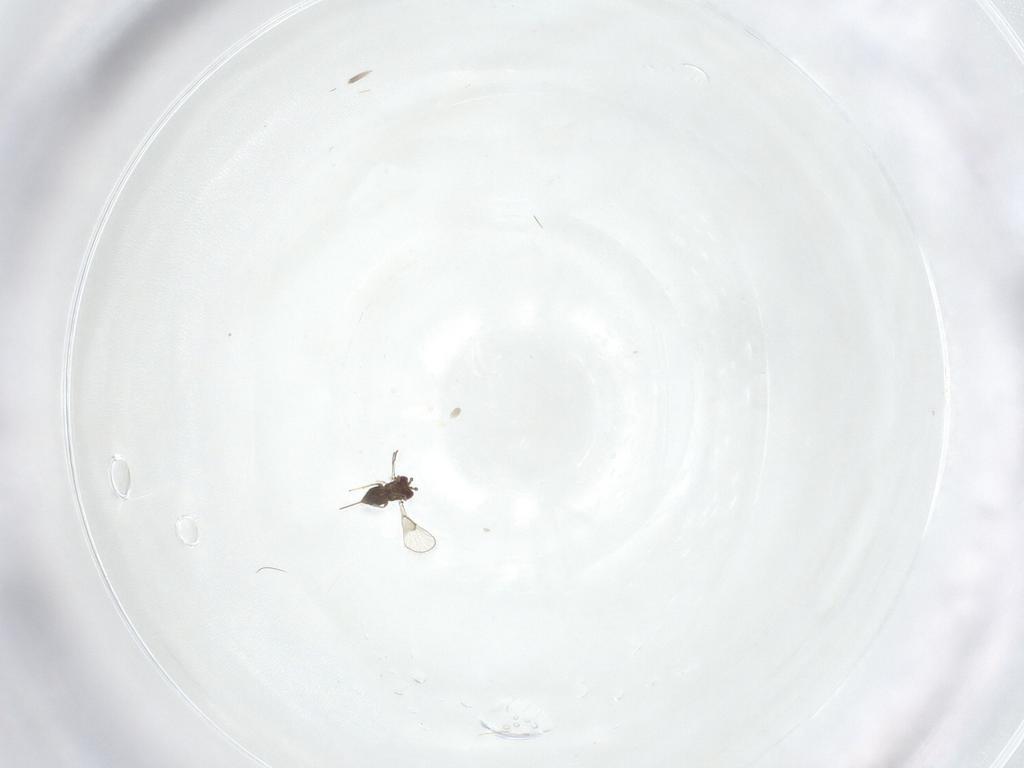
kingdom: Animalia
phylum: Arthropoda
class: Insecta
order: Hymenoptera
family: Trichogrammatidae
